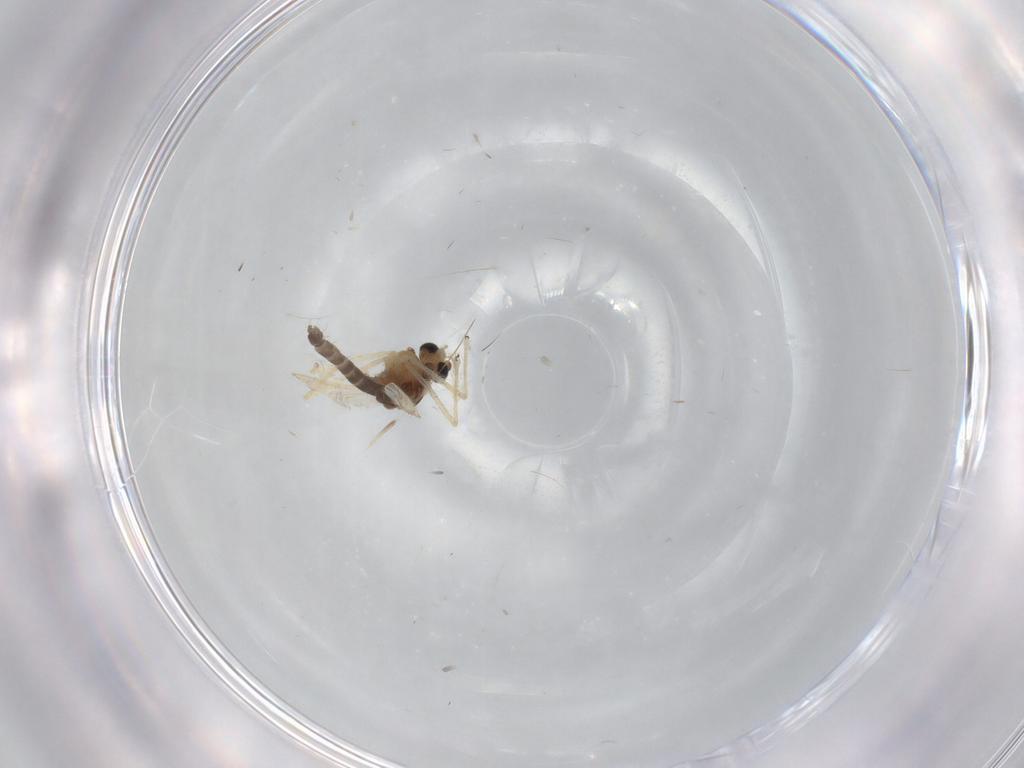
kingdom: Animalia
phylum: Arthropoda
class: Insecta
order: Diptera
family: Chironomidae
